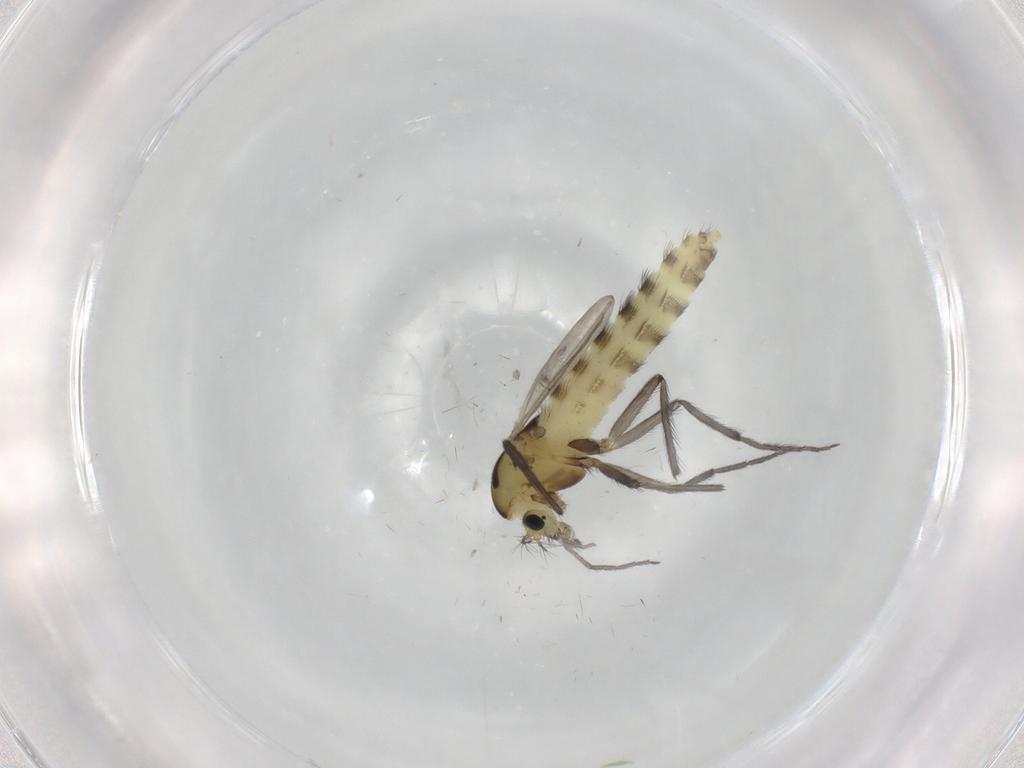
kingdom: Animalia
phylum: Arthropoda
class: Insecta
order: Diptera
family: Chironomidae
